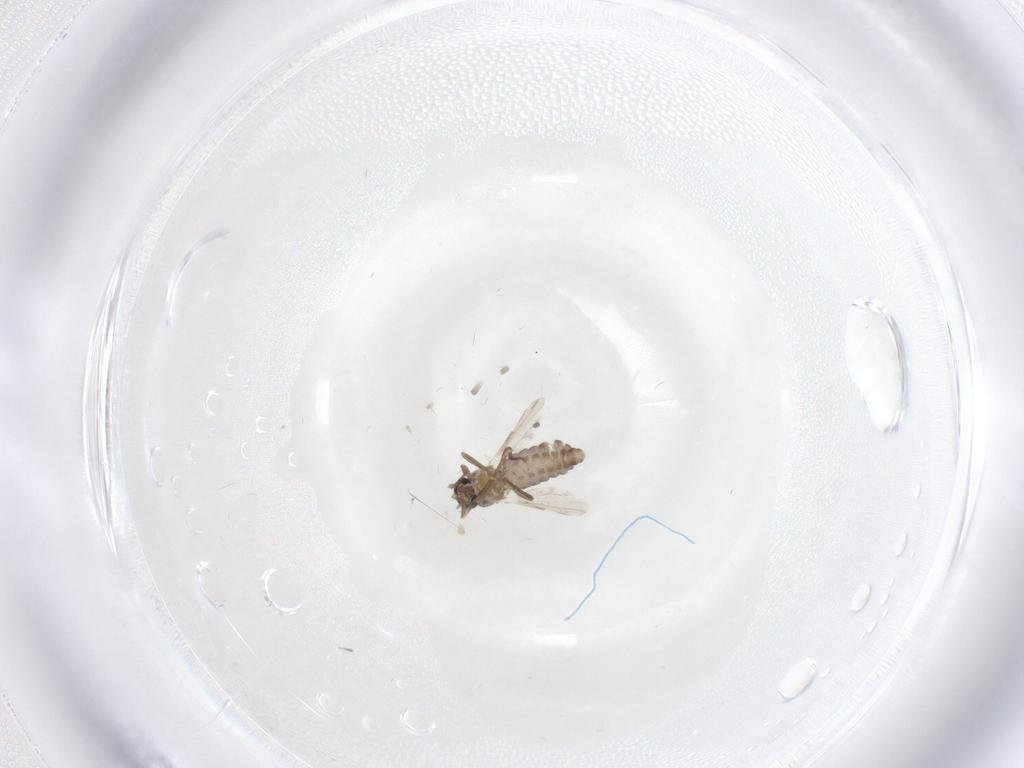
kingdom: Animalia
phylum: Arthropoda
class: Insecta
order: Diptera
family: Ceratopogonidae
